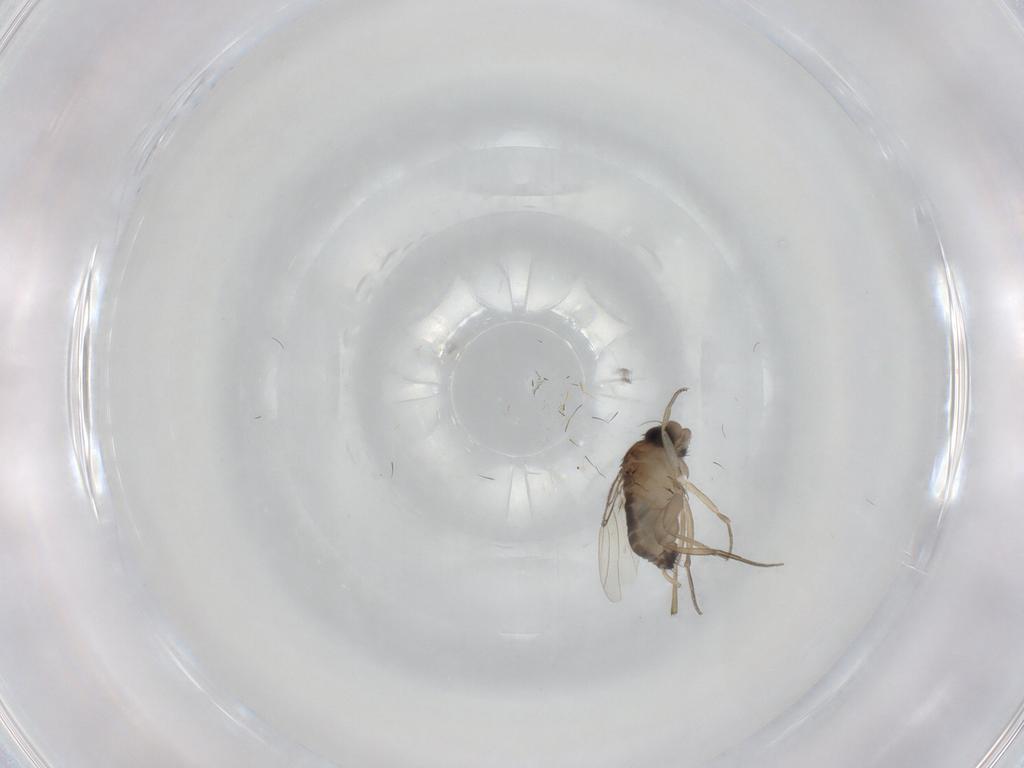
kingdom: Animalia
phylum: Arthropoda
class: Insecta
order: Diptera
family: Phoridae
